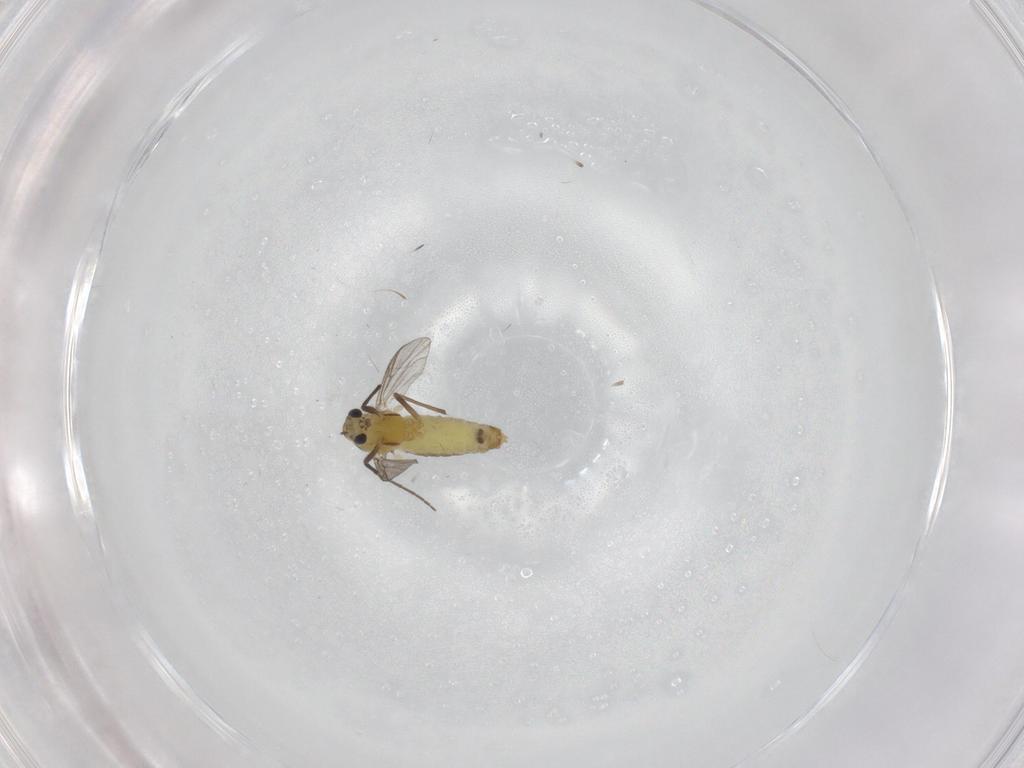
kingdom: Animalia
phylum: Arthropoda
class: Insecta
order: Diptera
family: Chironomidae
